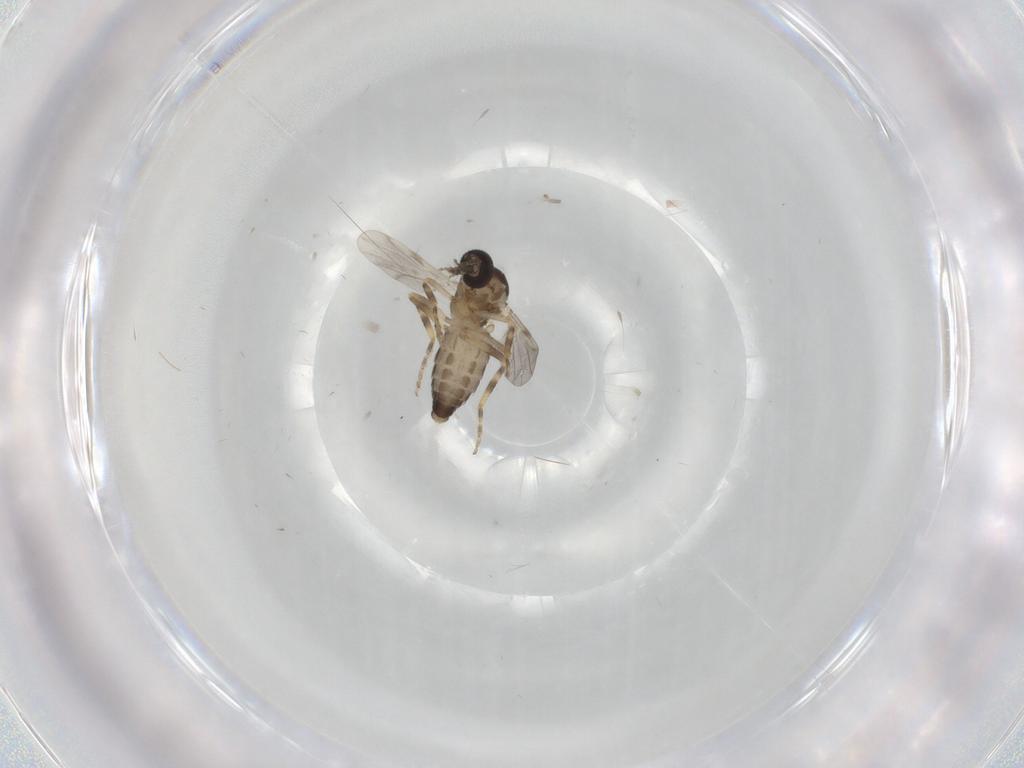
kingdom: Animalia
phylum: Arthropoda
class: Insecta
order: Diptera
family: Ceratopogonidae
